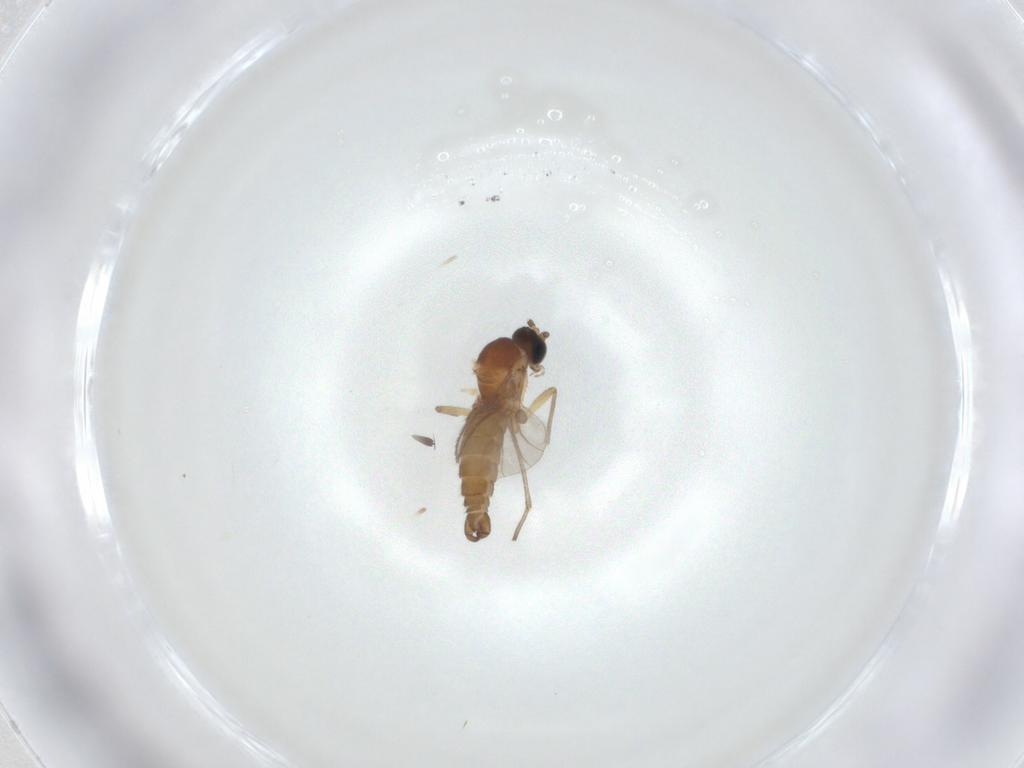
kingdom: Animalia
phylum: Arthropoda
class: Insecta
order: Diptera
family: Sciaridae
